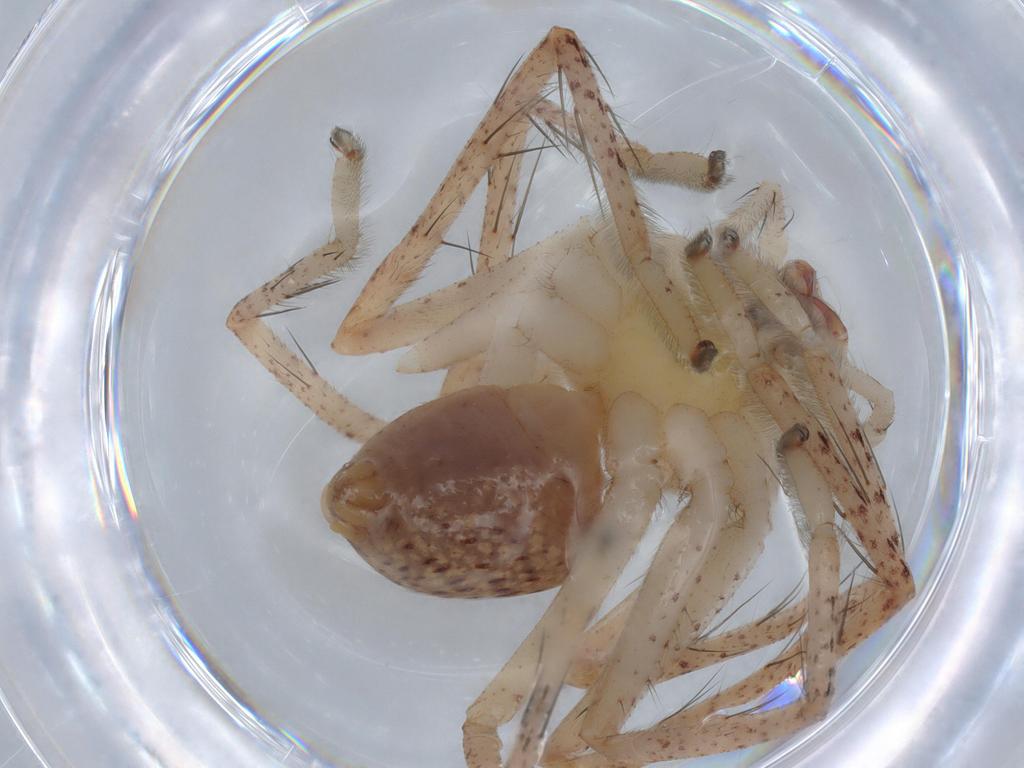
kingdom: Animalia
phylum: Arthropoda
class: Arachnida
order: Araneae
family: Sparassidae
